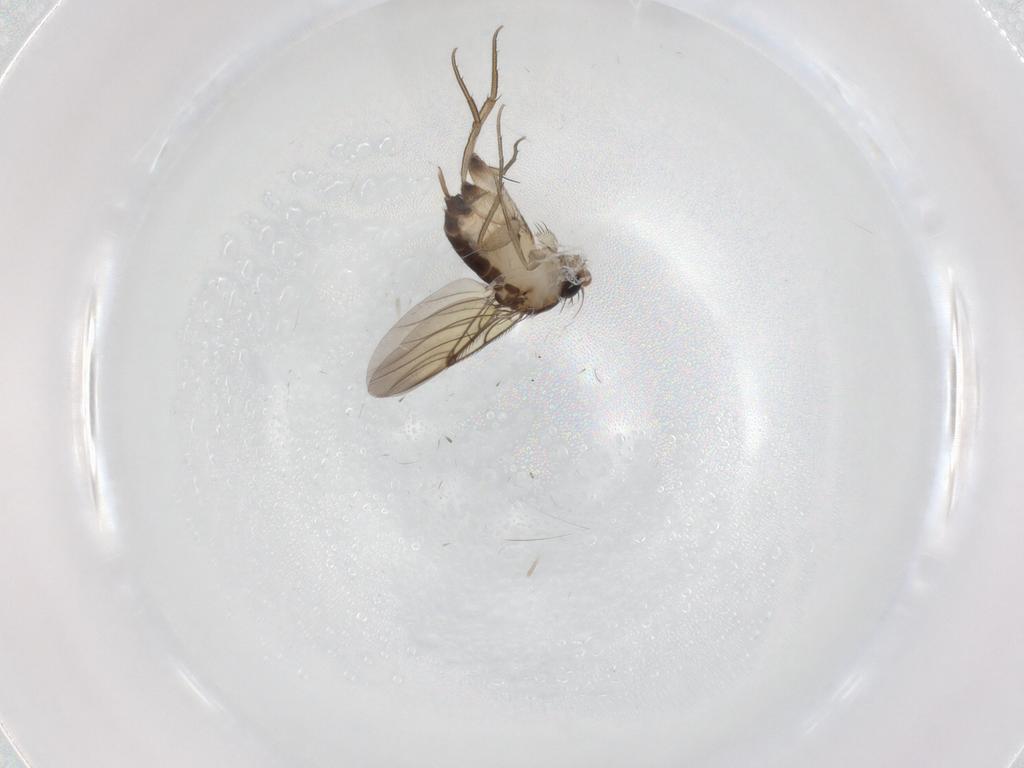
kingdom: Animalia
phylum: Arthropoda
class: Insecta
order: Diptera
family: Phoridae
